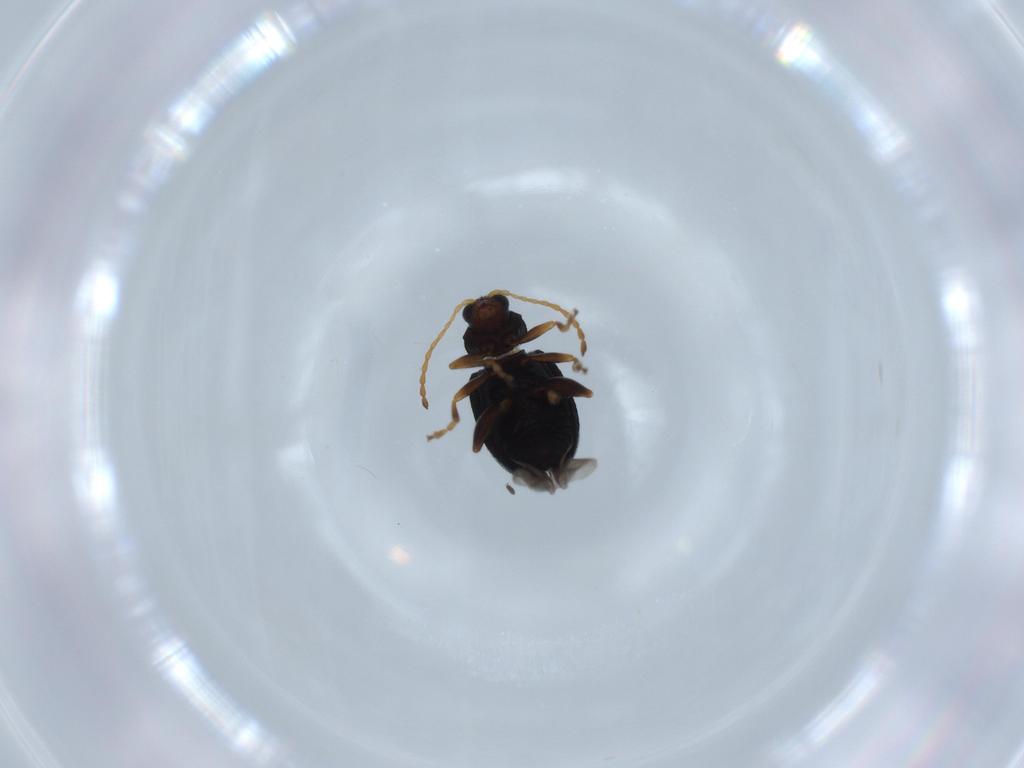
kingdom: Animalia
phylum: Arthropoda
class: Insecta
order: Coleoptera
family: Chrysomelidae
